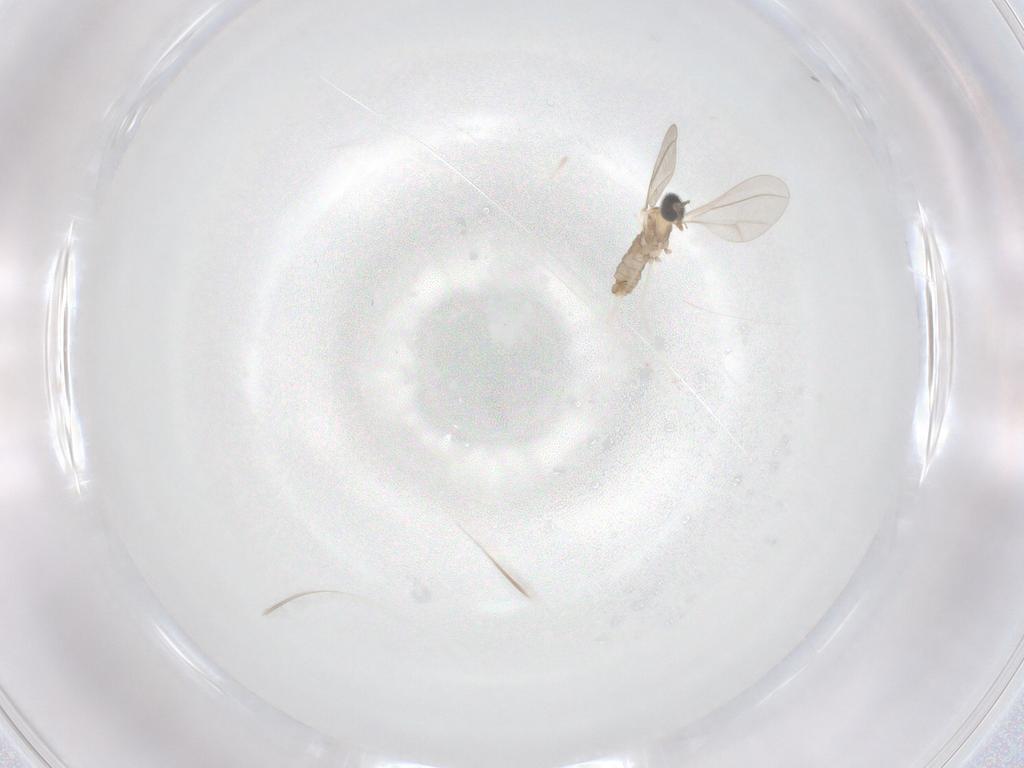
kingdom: Animalia
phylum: Arthropoda
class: Insecta
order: Diptera
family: Cecidomyiidae
